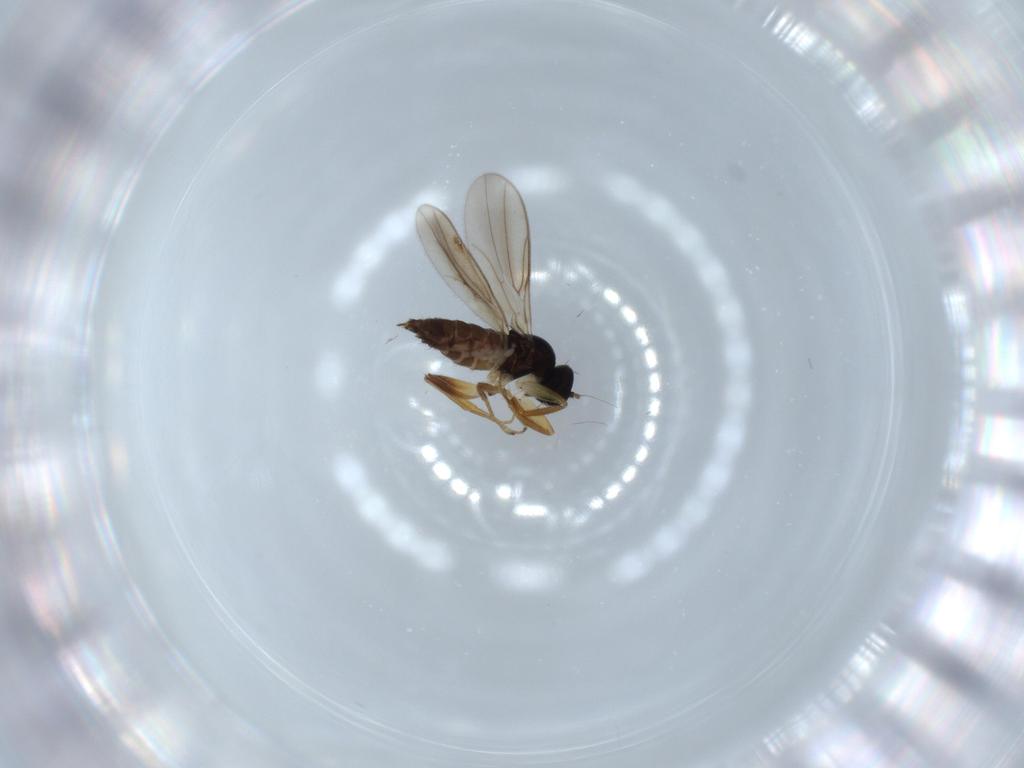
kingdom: Animalia
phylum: Arthropoda
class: Insecta
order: Diptera
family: Hybotidae
